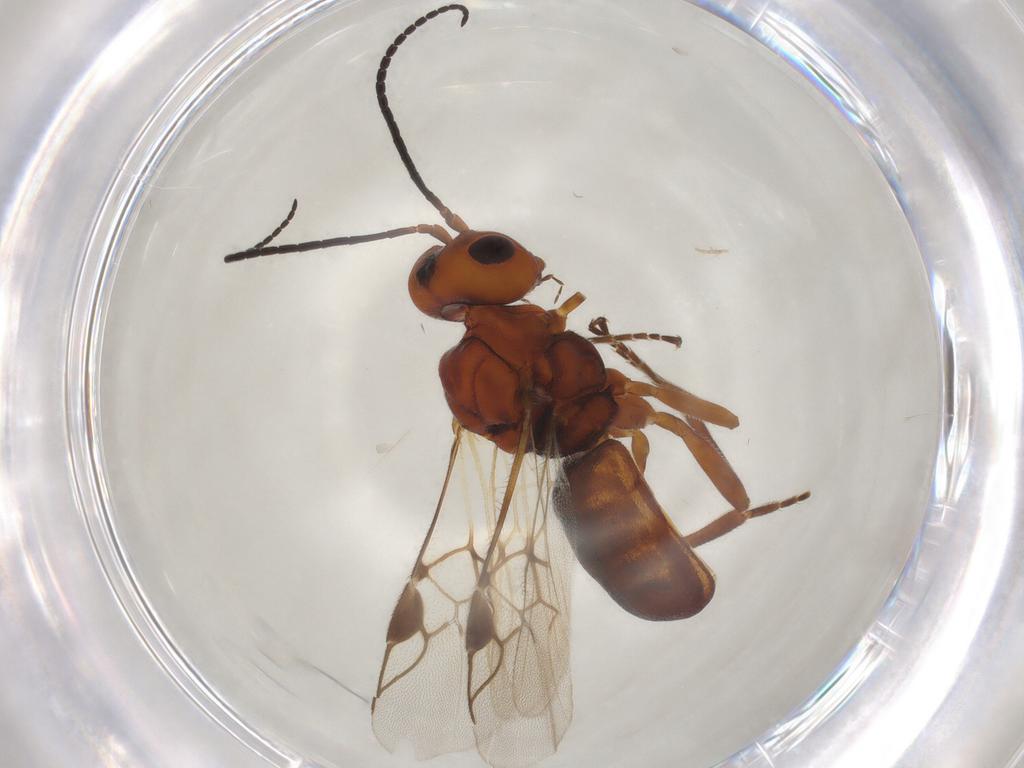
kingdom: Animalia
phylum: Arthropoda
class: Insecta
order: Hymenoptera
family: Braconidae
